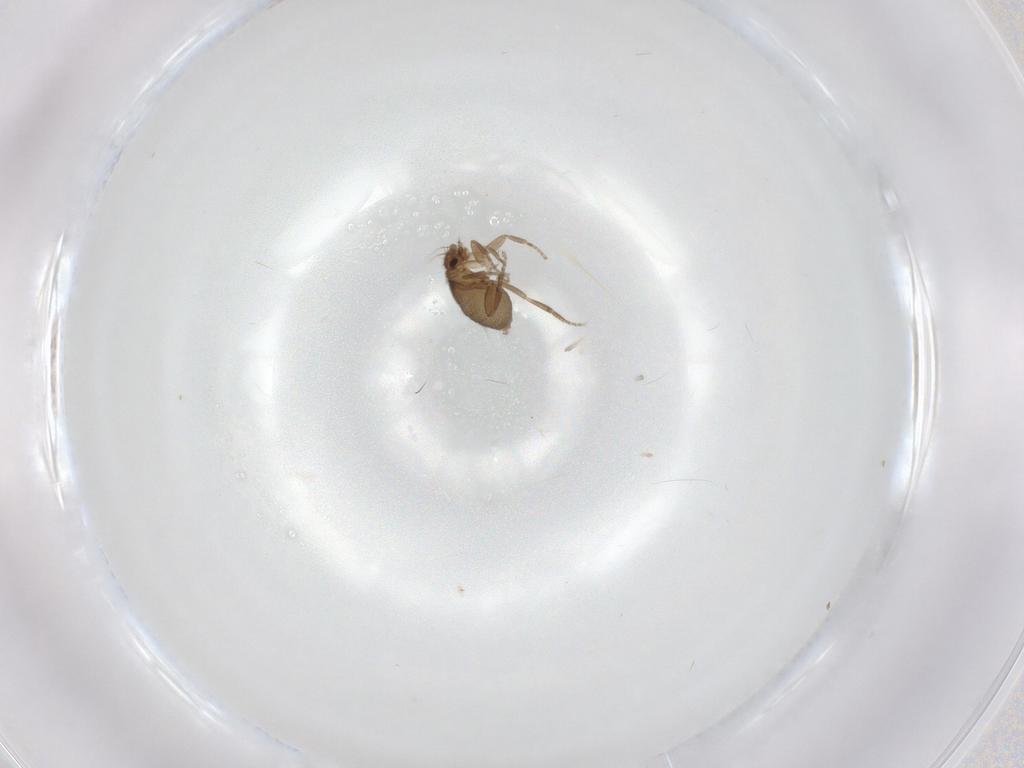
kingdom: Animalia
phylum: Arthropoda
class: Insecta
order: Diptera
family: Phoridae
